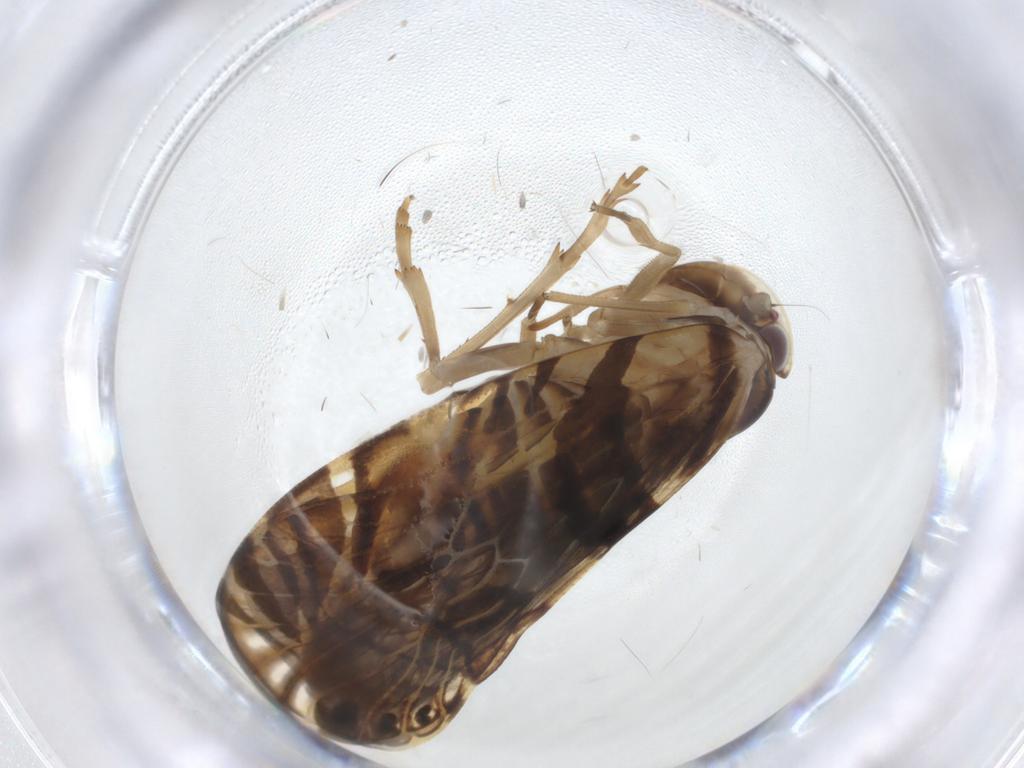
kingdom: Animalia
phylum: Arthropoda
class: Insecta
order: Hemiptera
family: Cixiidae
